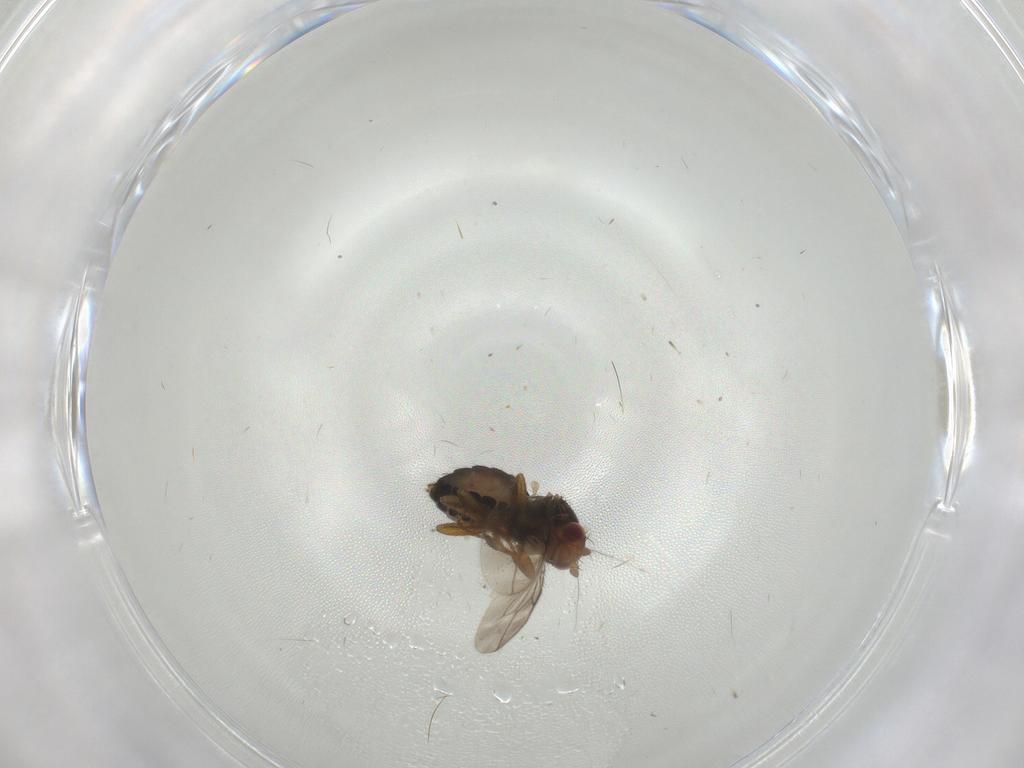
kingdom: Animalia
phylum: Arthropoda
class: Insecta
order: Diptera
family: Sphaeroceridae
